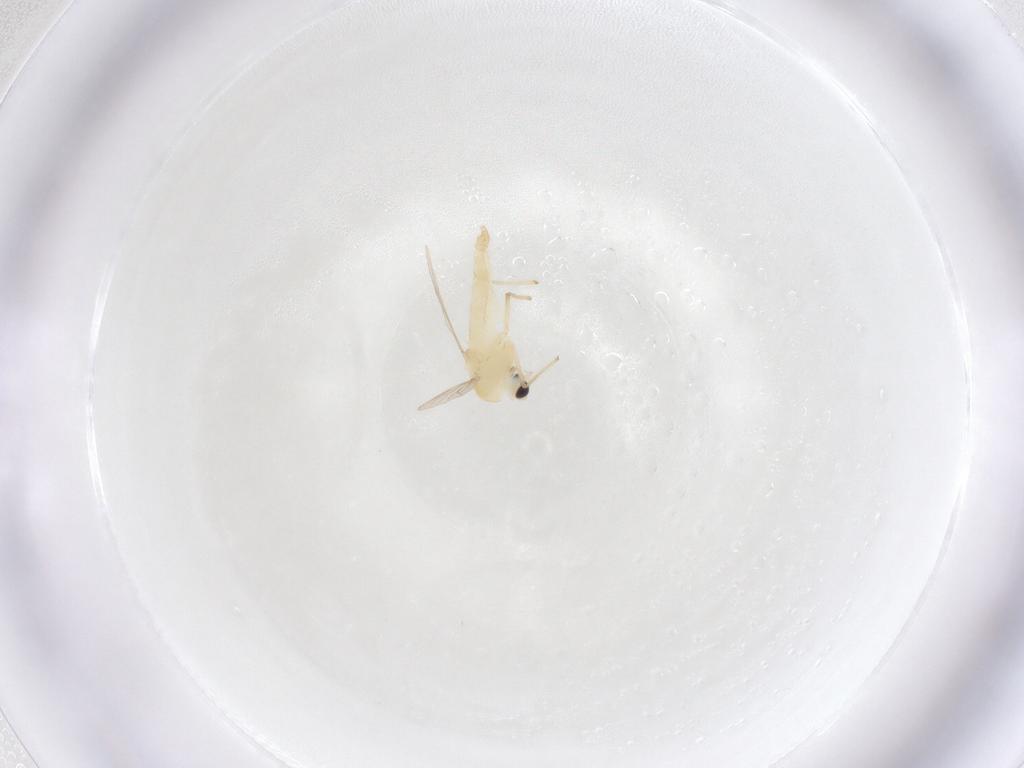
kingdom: Animalia
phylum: Arthropoda
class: Insecta
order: Diptera
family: Chironomidae
